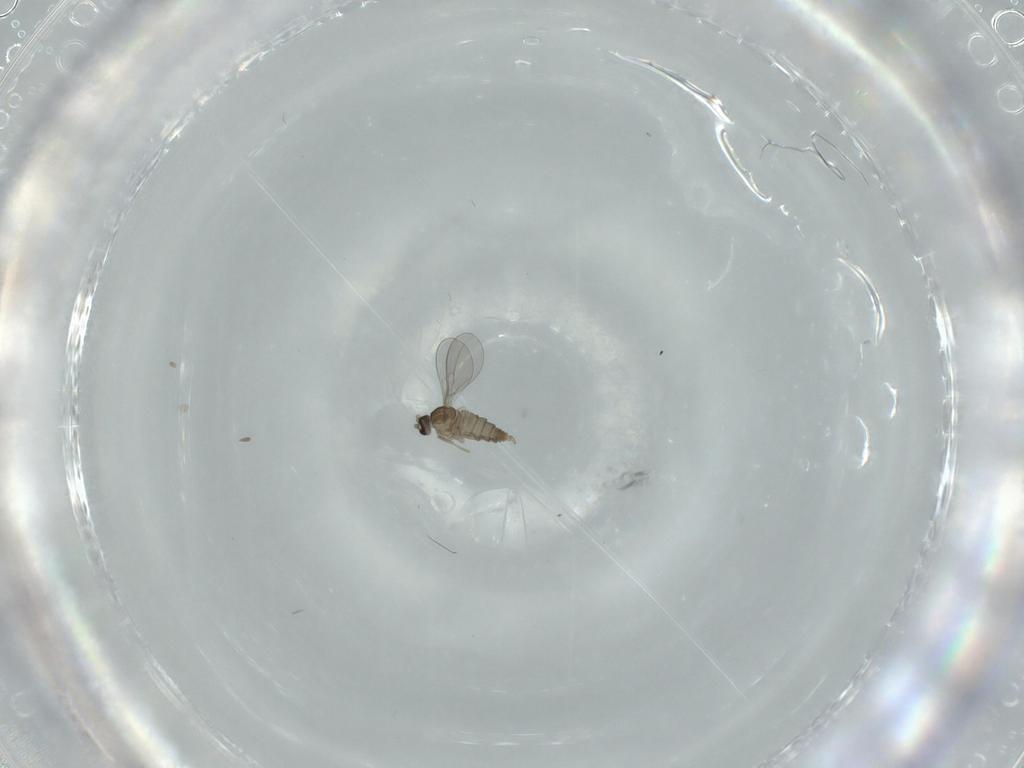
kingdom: Animalia
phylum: Arthropoda
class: Insecta
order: Diptera
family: Cecidomyiidae
